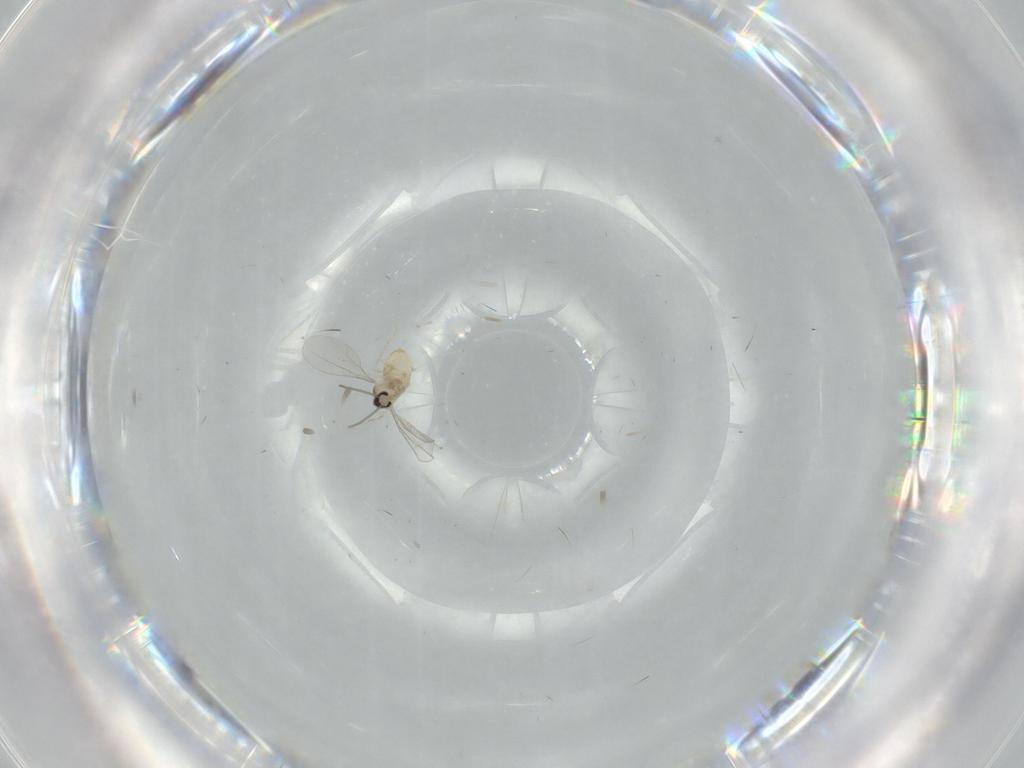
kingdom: Animalia
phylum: Arthropoda
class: Insecta
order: Diptera
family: Cecidomyiidae
